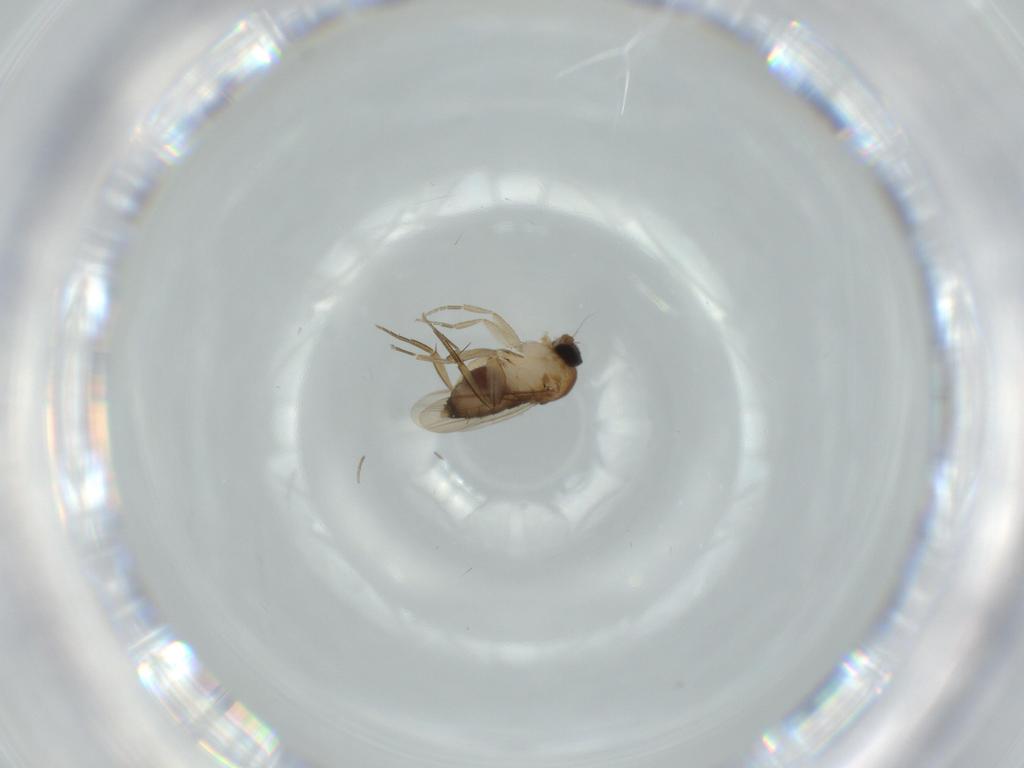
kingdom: Animalia
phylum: Arthropoda
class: Insecta
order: Diptera
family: Phoridae
